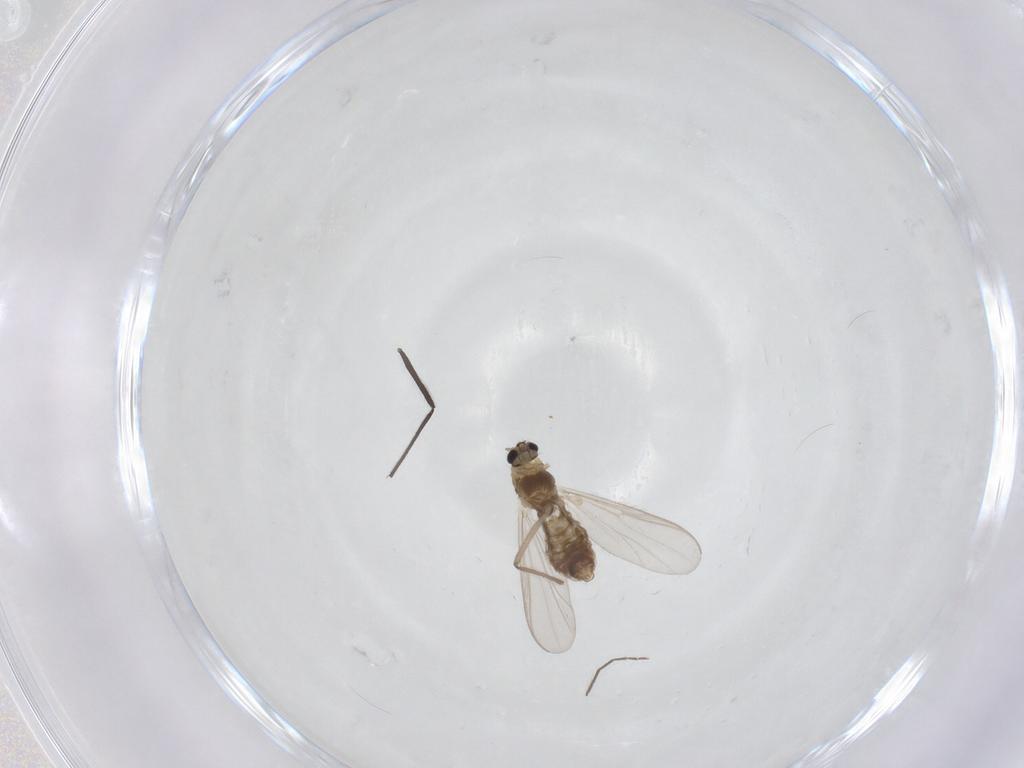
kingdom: Animalia
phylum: Arthropoda
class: Insecta
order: Diptera
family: Chironomidae
